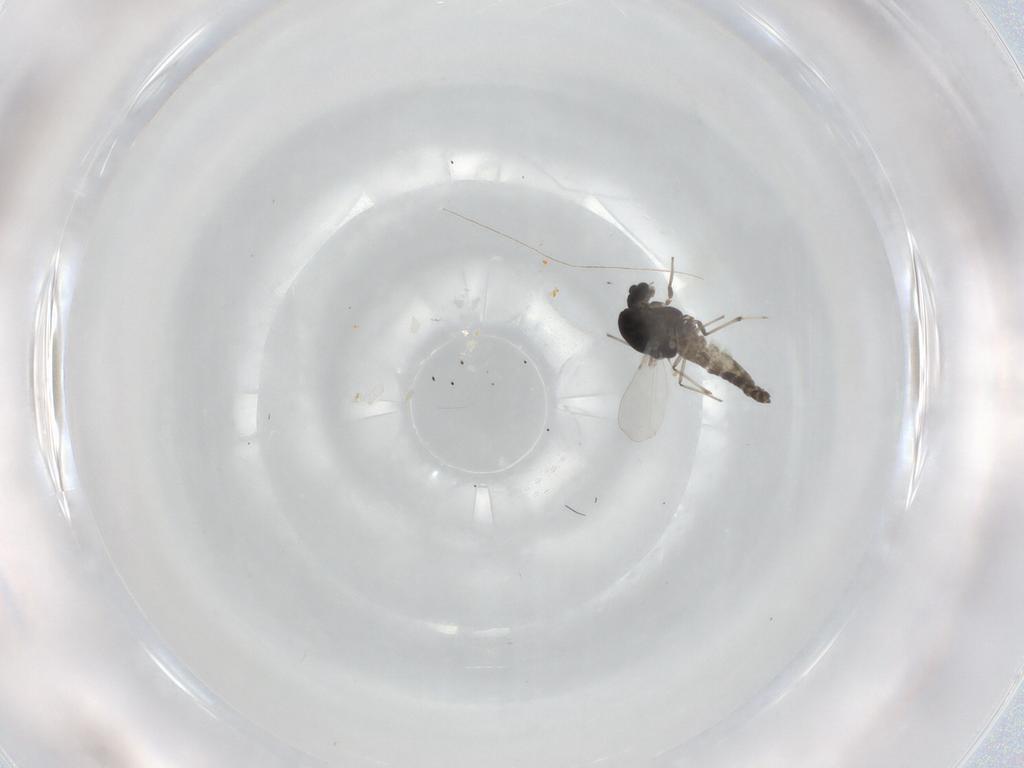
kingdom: Animalia
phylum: Arthropoda
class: Insecta
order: Diptera
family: Chironomidae
